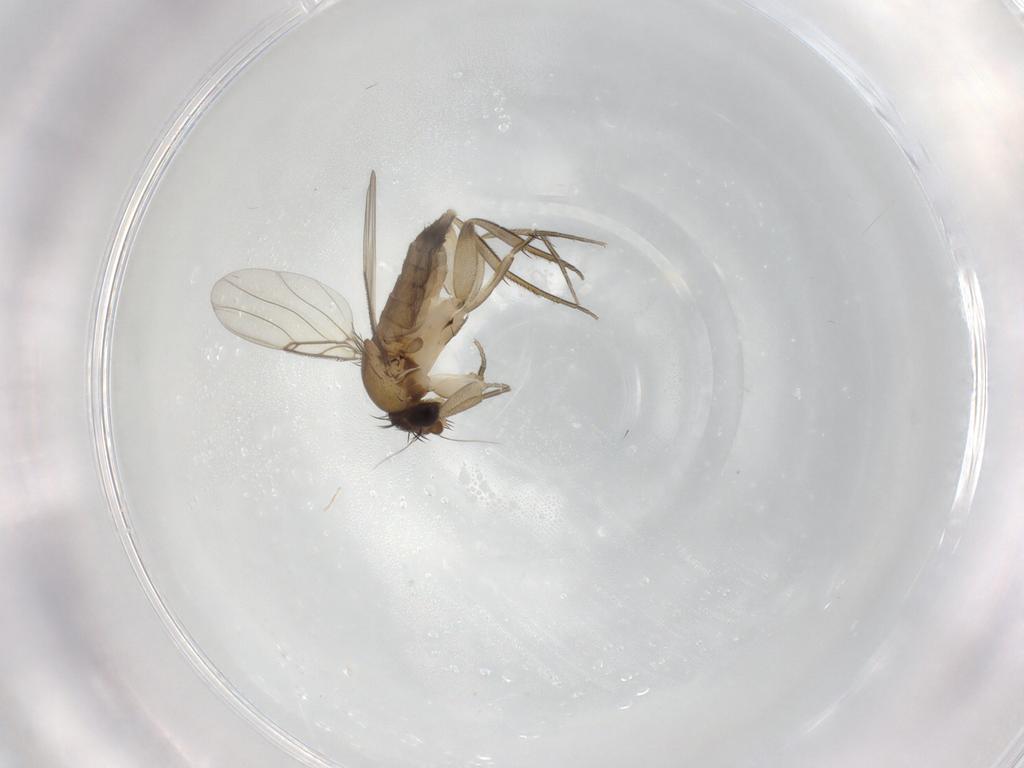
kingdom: Animalia
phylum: Arthropoda
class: Insecta
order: Diptera
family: Phoridae
